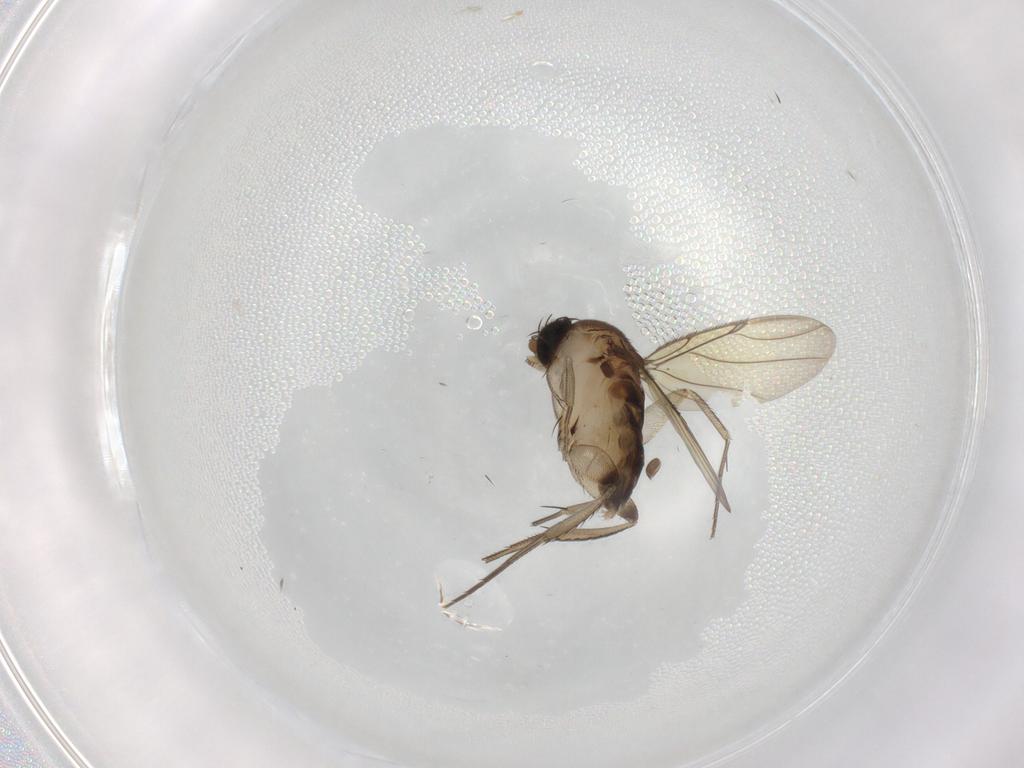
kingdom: Animalia
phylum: Arthropoda
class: Insecta
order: Diptera
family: Phoridae
